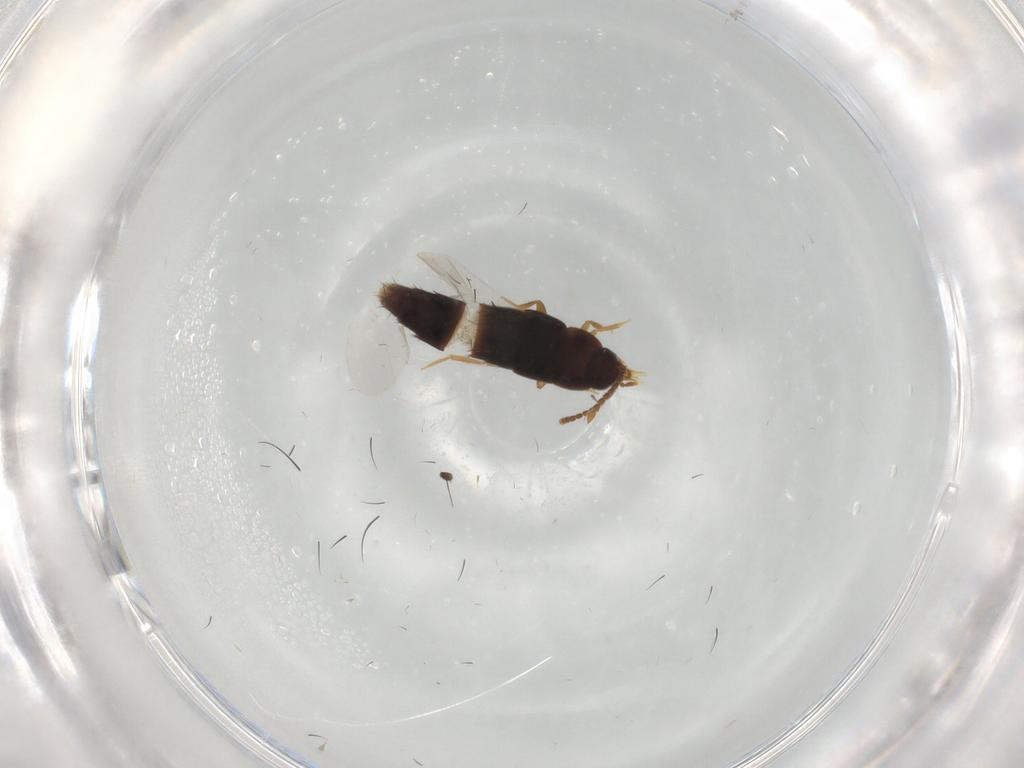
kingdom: Animalia
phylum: Arthropoda
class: Insecta
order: Coleoptera
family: Staphylinidae
